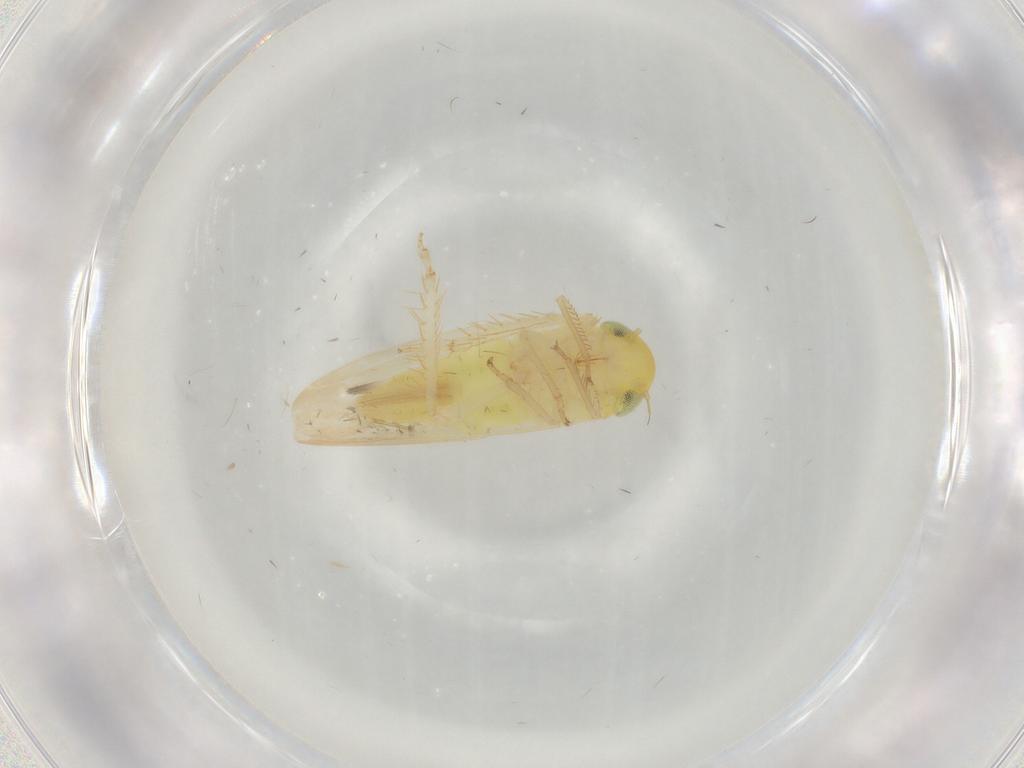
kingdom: Animalia
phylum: Arthropoda
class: Insecta
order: Hemiptera
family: Cicadellidae
